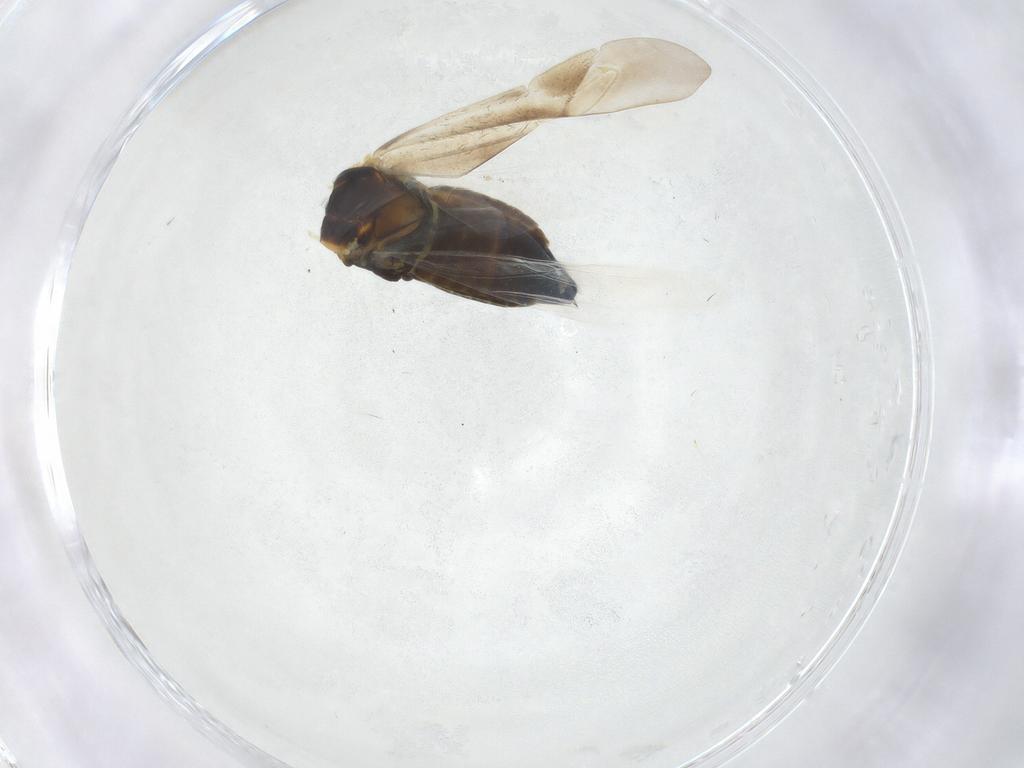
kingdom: Animalia
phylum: Arthropoda
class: Insecta
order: Hemiptera
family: Miridae
